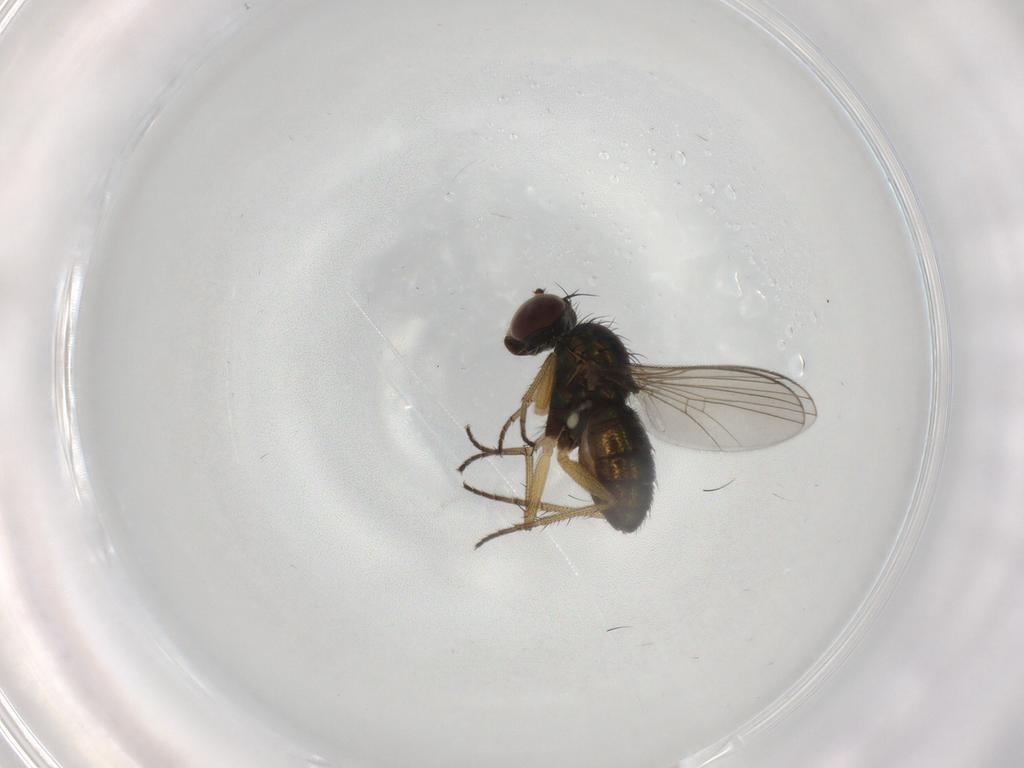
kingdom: Animalia
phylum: Arthropoda
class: Insecta
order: Diptera
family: Dolichopodidae
